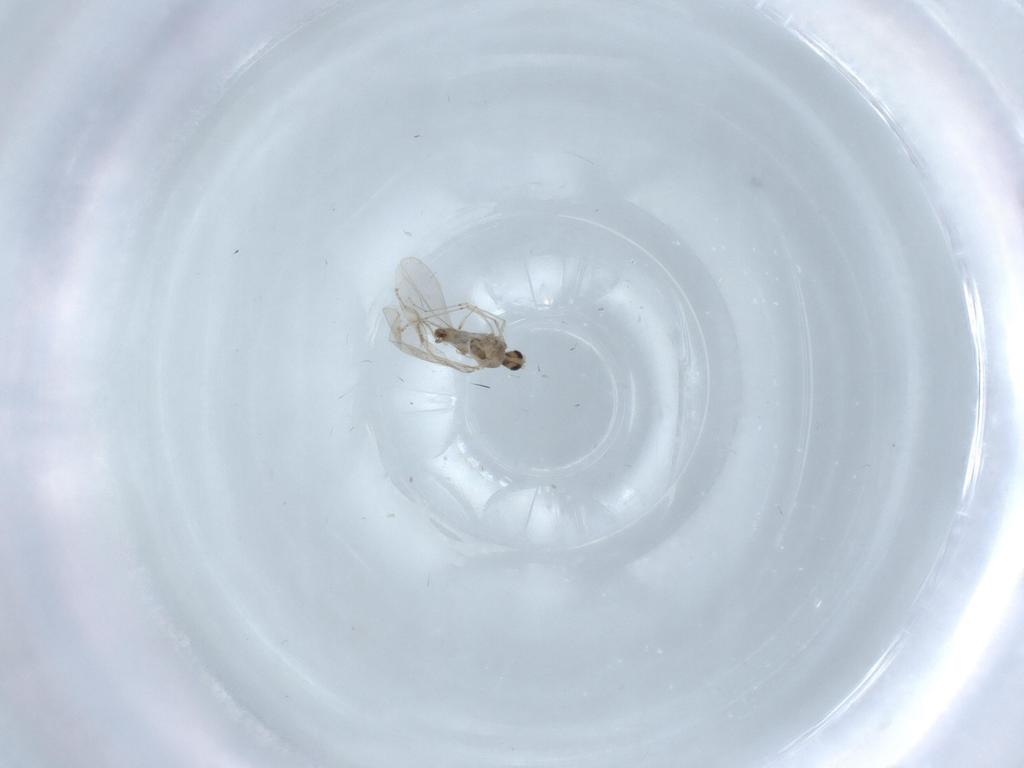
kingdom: Animalia
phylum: Arthropoda
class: Insecta
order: Diptera
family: Cecidomyiidae
